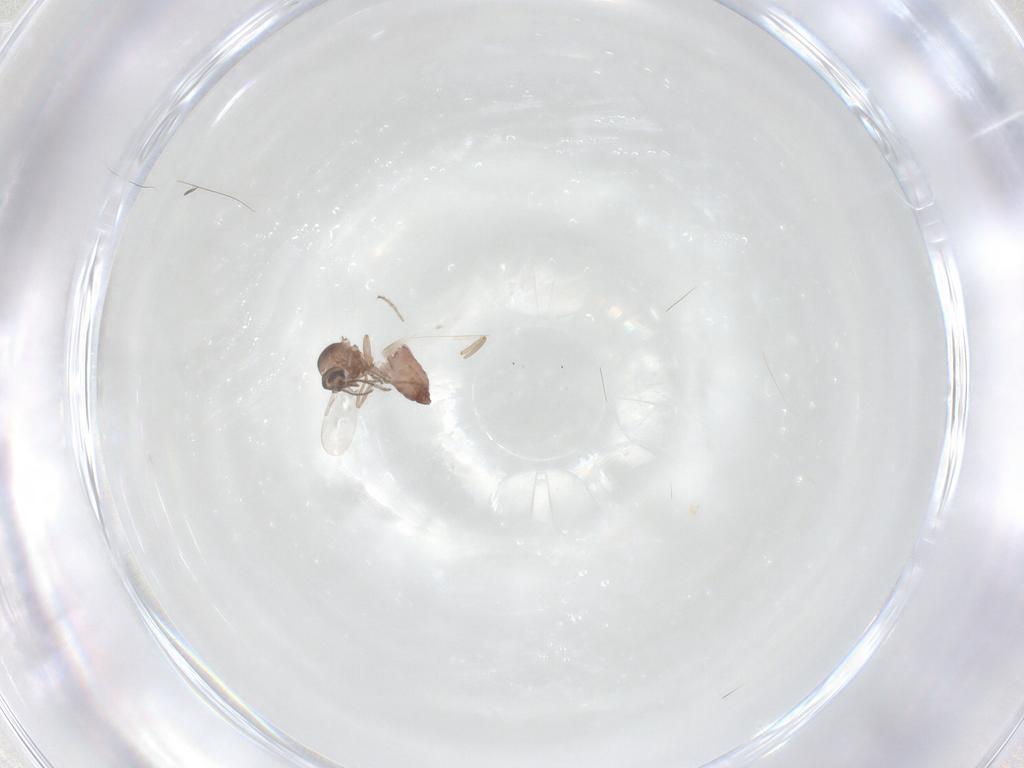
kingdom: Animalia
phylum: Arthropoda
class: Insecta
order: Diptera
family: Ceratopogonidae
